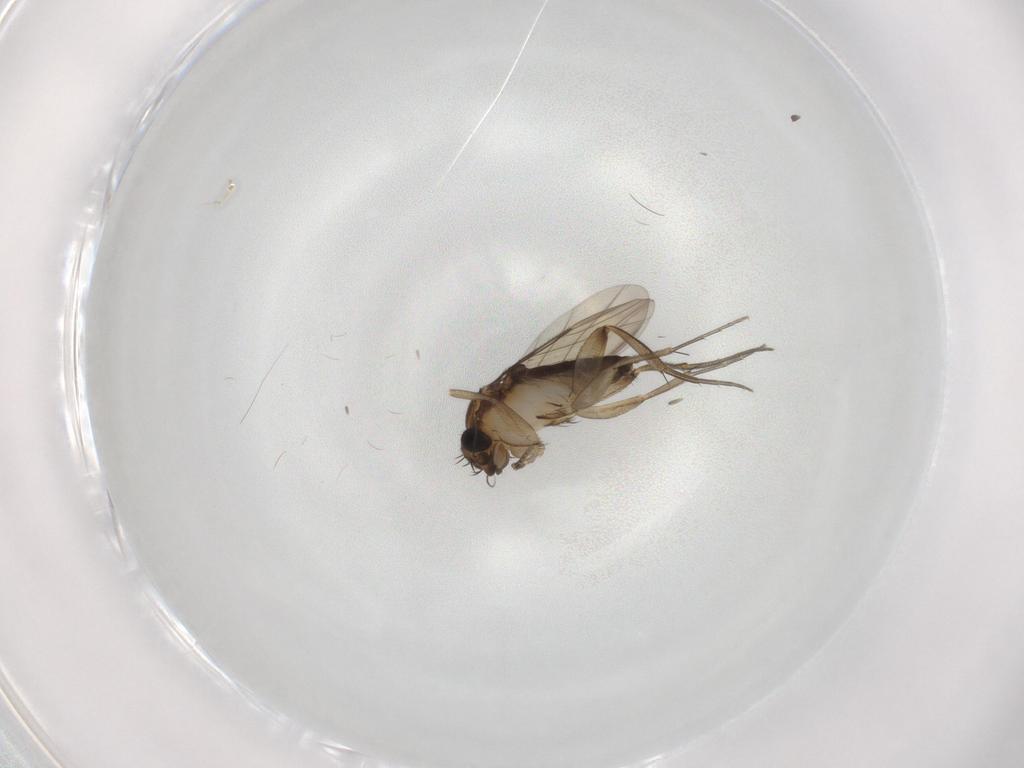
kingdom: Animalia
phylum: Arthropoda
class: Insecta
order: Diptera
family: Phoridae
